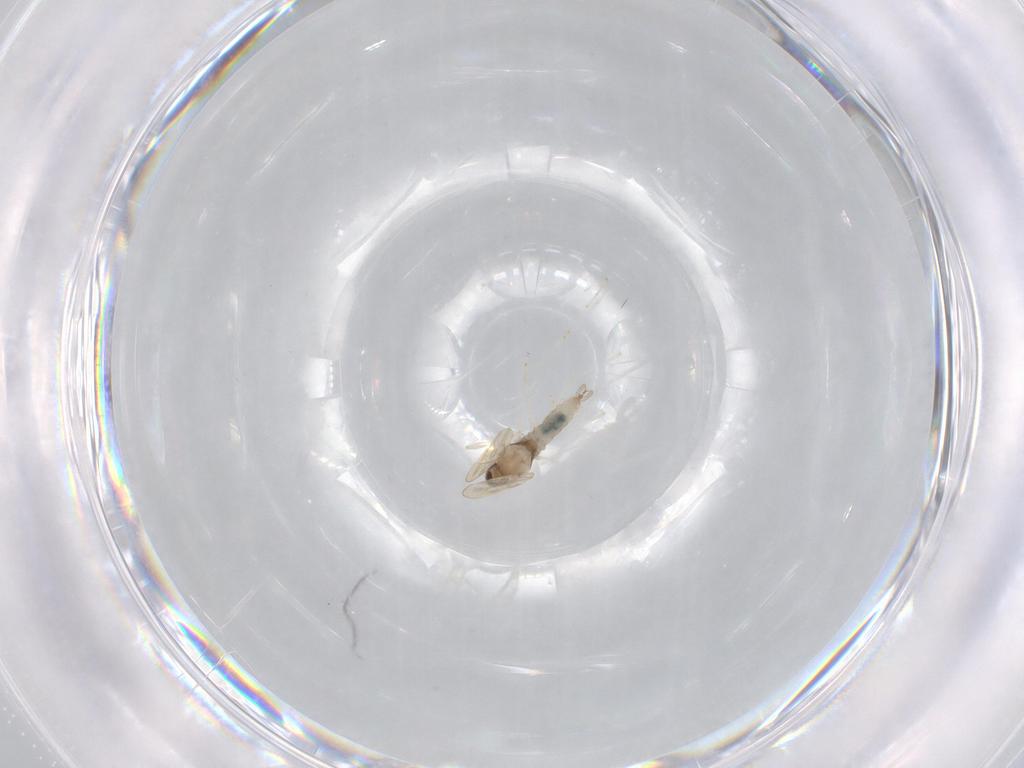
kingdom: Animalia
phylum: Arthropoda
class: Insecta
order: Diptera
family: Cecidomyiidae
